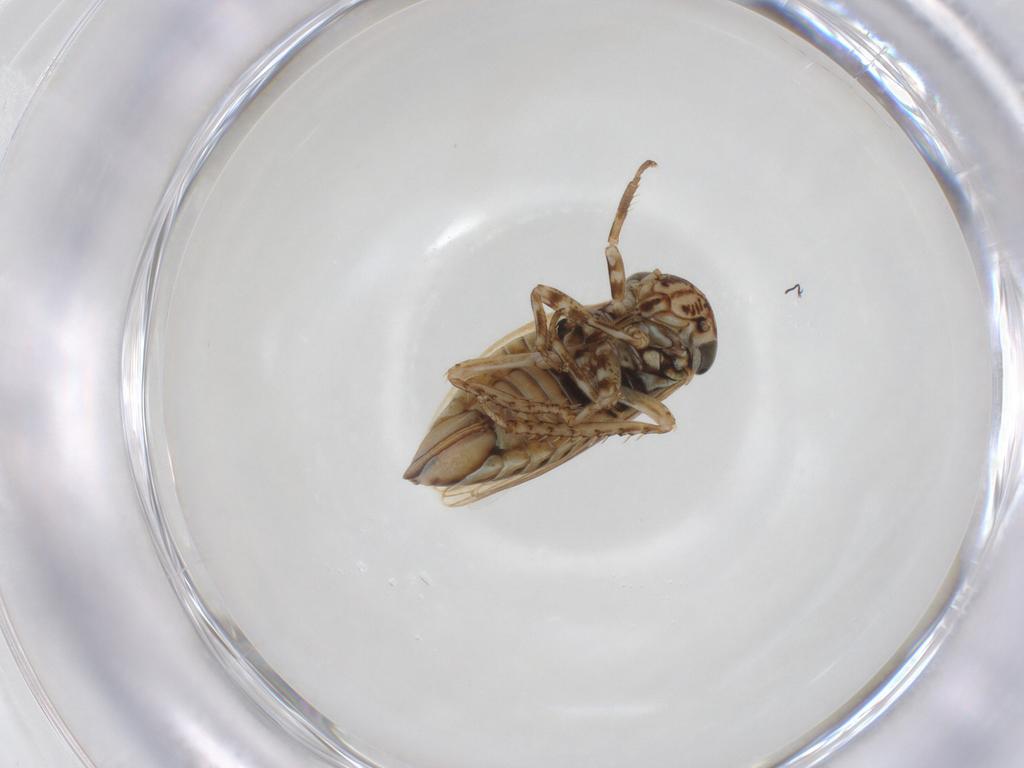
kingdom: Animalia
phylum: Arthropoda
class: Insecta
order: Hemiptera
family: Cicadellidae
